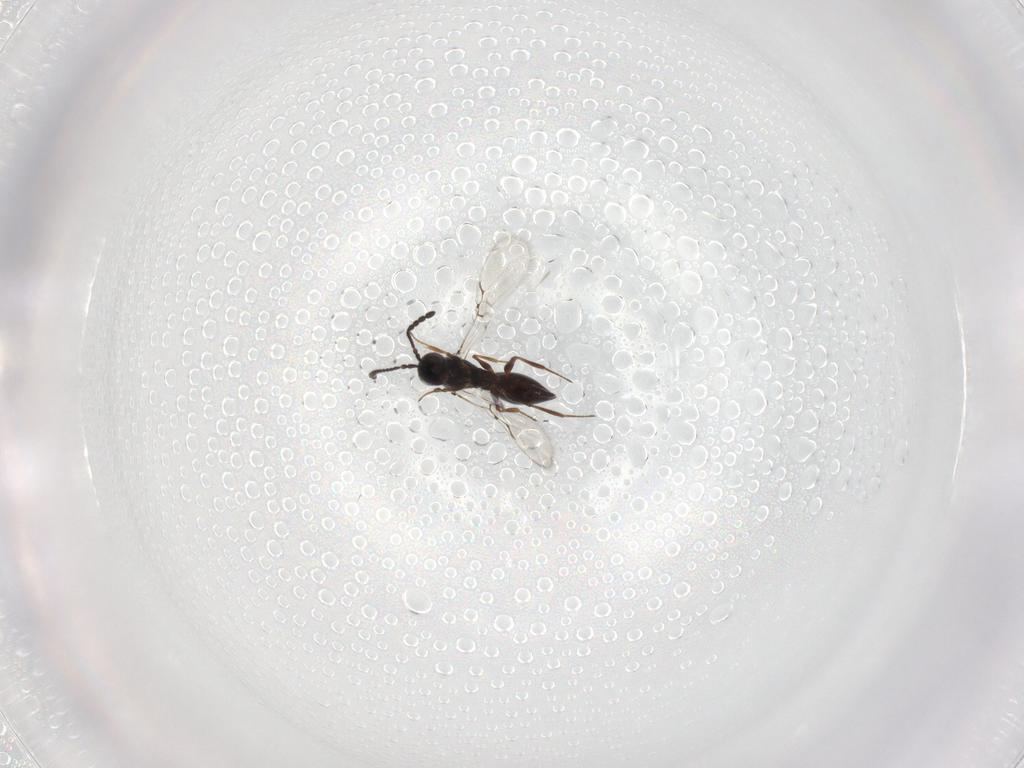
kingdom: Animalia
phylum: Arthropoda
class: Insecta
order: Hymenoptera
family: Figitidae
